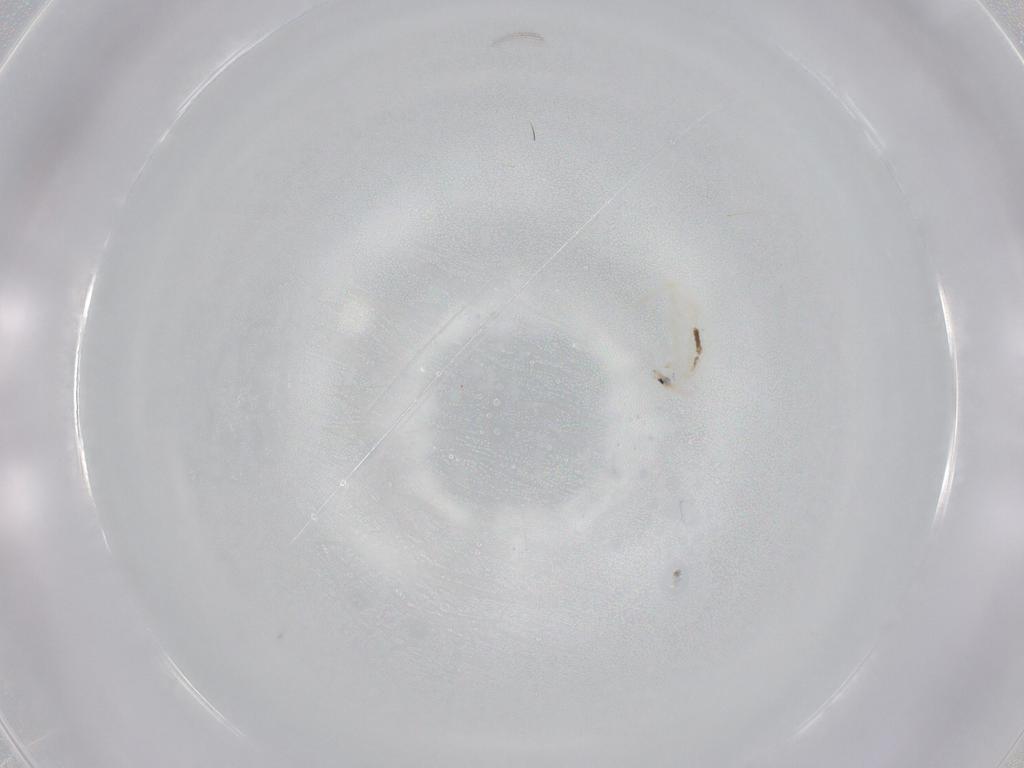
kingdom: Animalia
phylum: Arthropoda
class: Collembola
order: Entomobryomorpha
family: Entomobryidae
